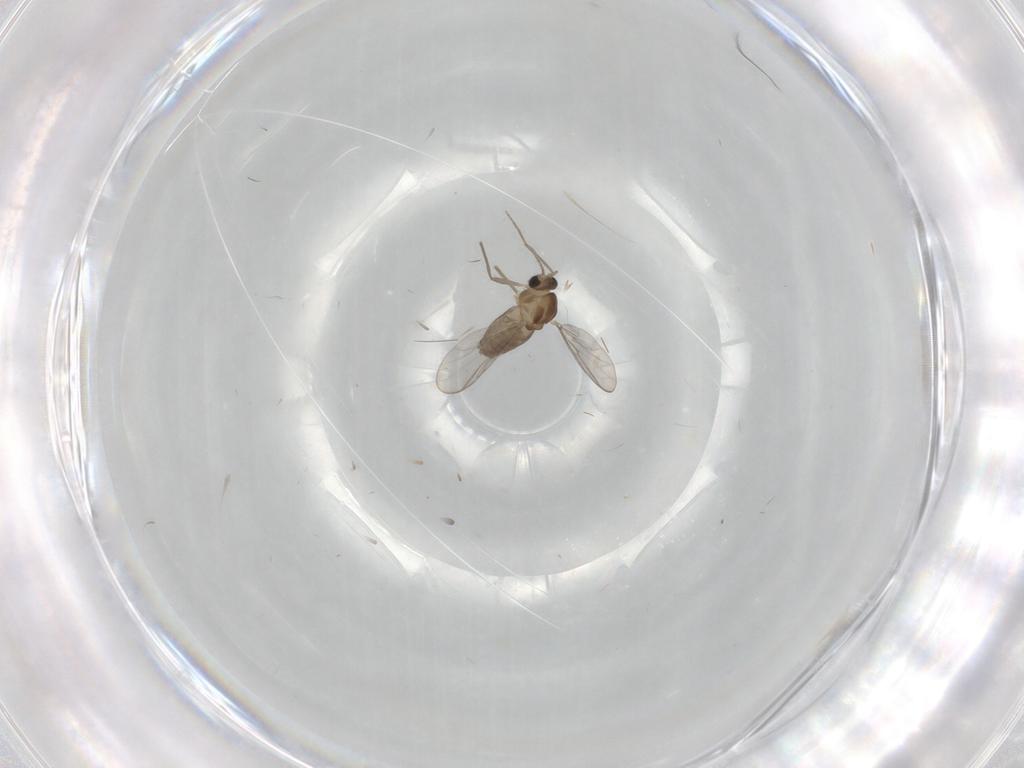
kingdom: Animalia
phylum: Arthropoda
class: Insecta
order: Diptera
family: Chironomidae
